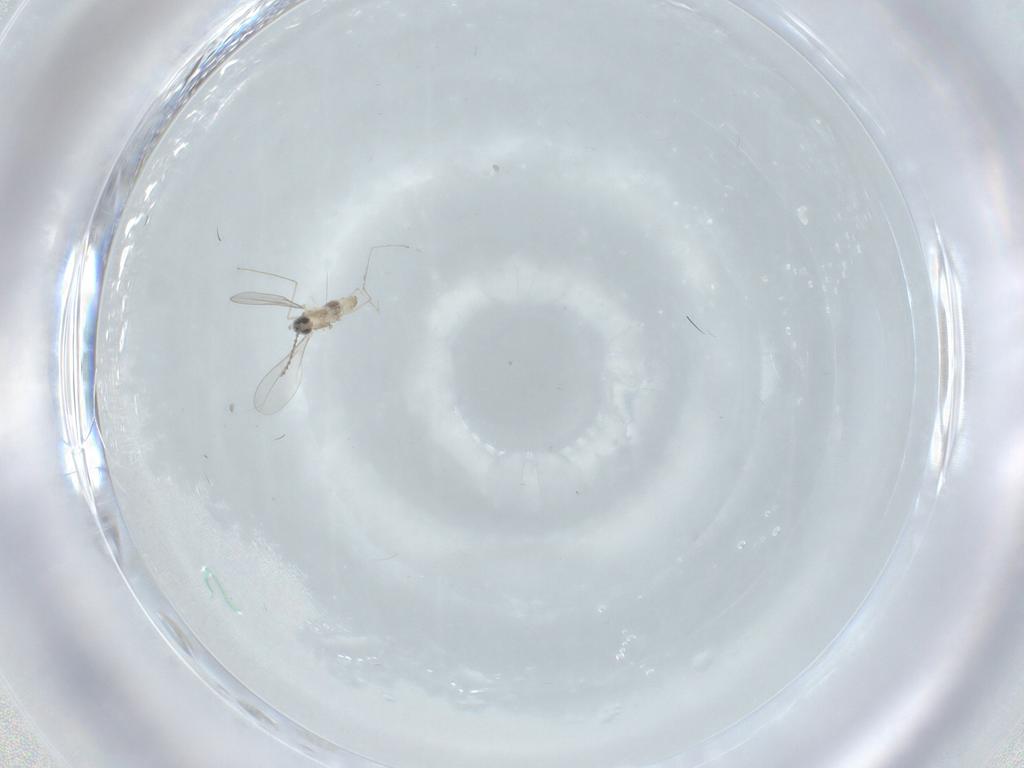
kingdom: Animalia
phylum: Arthropoda
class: Insecta
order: Diptera
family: Cecidomyiidae
